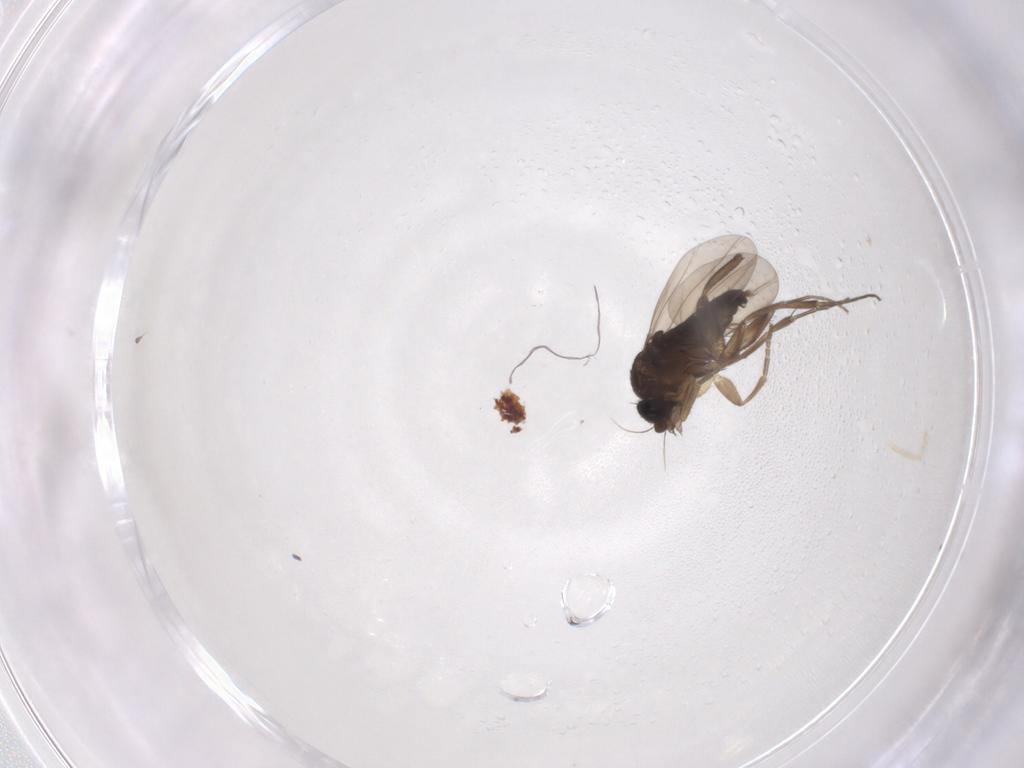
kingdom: Animalia
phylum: Arthropoda
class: Insecta
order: Diptera
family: Phoridae
